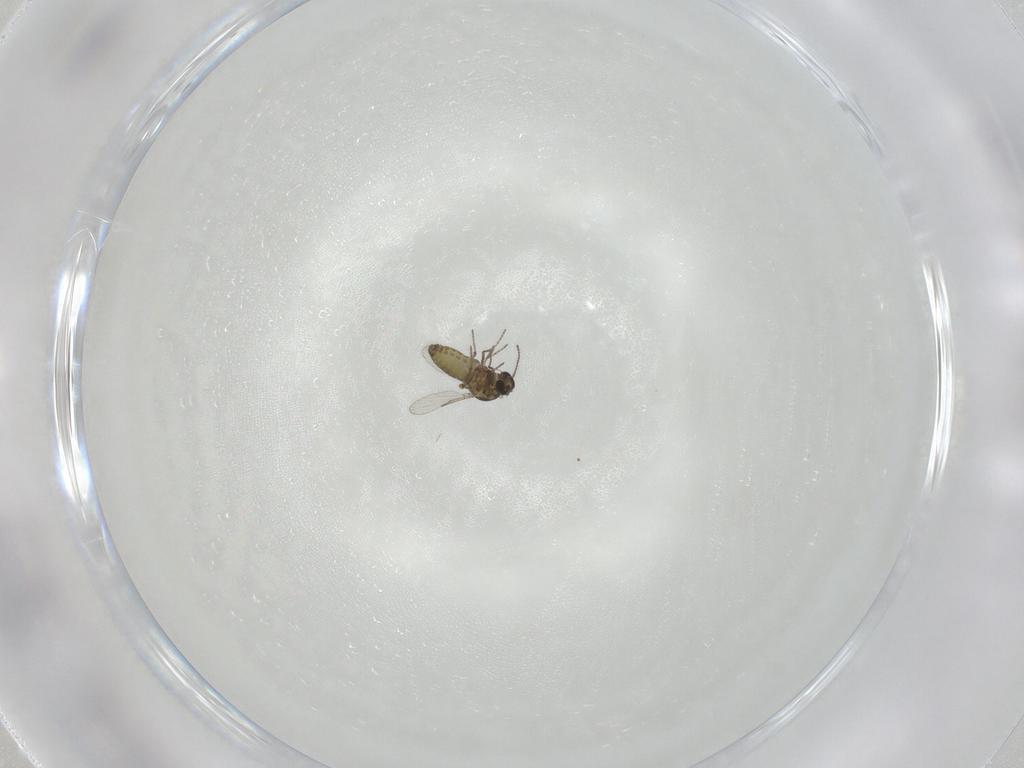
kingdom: Animalia
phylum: Arthropoda
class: Insecta
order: Diptera
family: Ceratopogonidae
